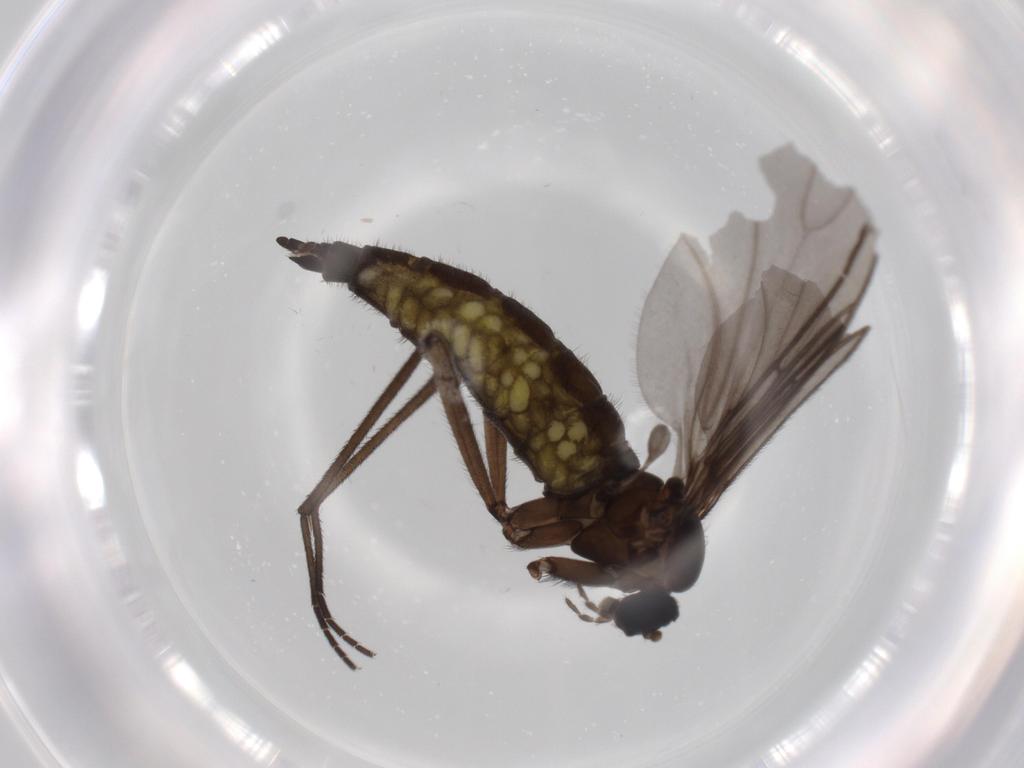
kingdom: Animalia
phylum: Arthropoda
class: Insecta
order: Diptera
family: Sciaridae
